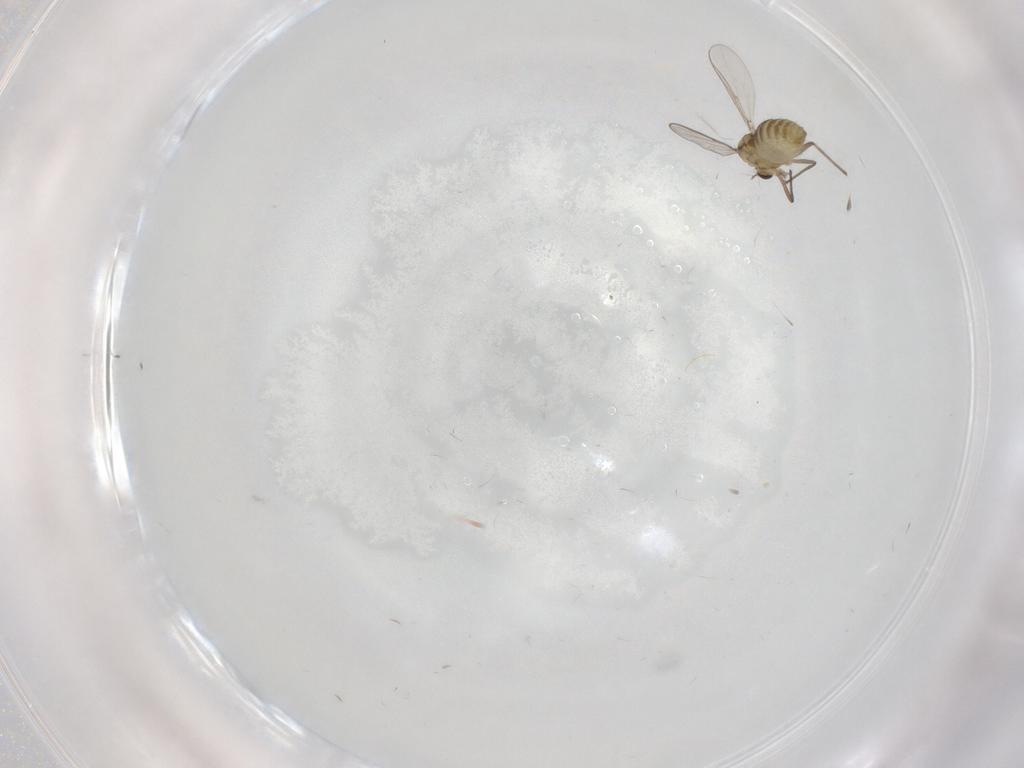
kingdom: Animalia
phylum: Arthropoda
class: Insecta
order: Diptera
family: Chironomidae
